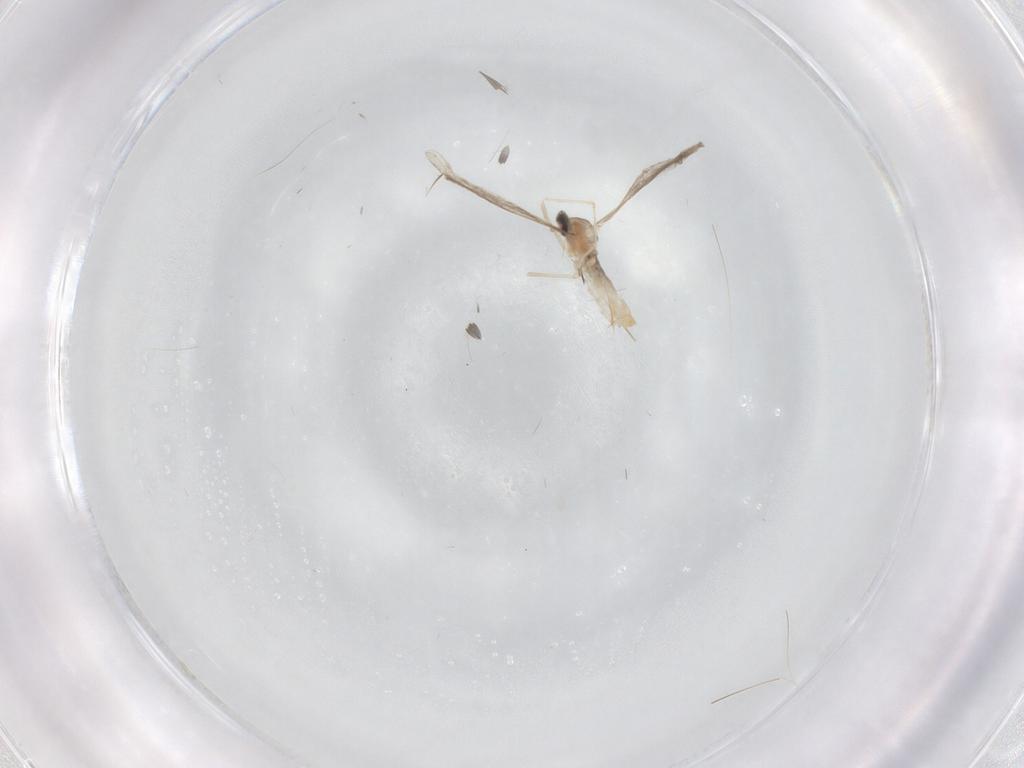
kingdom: Animalia
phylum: Arthropoda
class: Insecta
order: Diptera
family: Cecidomyiidae
